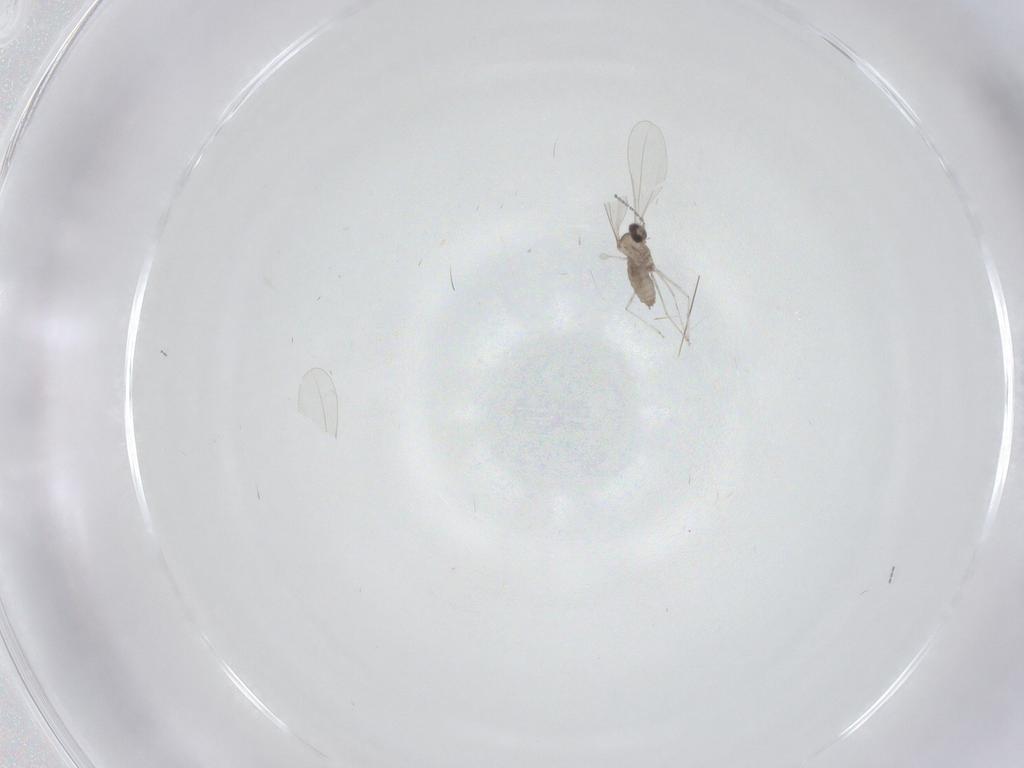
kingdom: Animalia
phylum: Arthropoda
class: Insecta
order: Diptera
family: Cecidomyiidae
